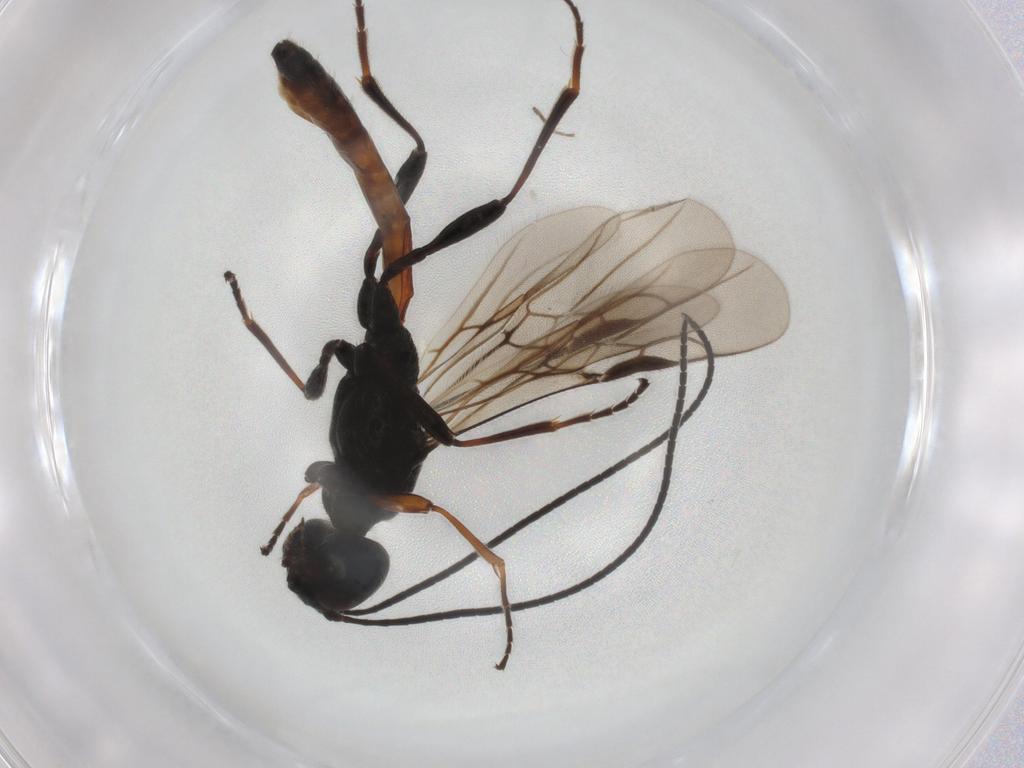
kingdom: Animalia
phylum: Arthropoda
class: Insecta
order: Hymenoptera
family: Braconidae
